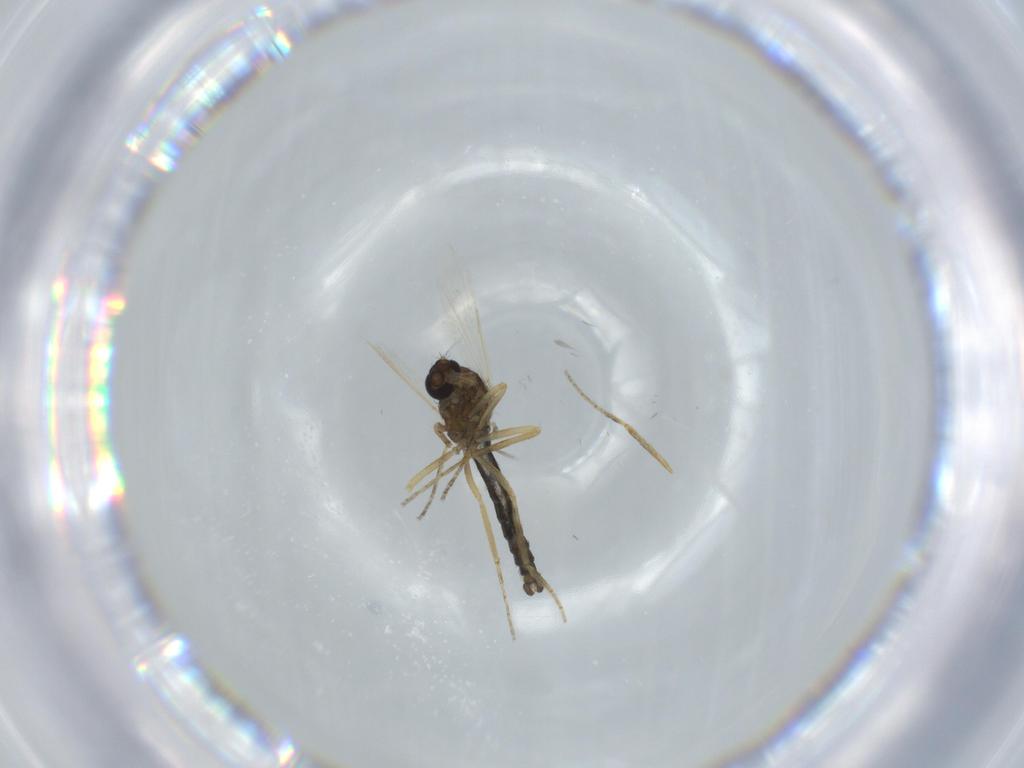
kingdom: Animalia
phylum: Arthropoda
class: Insecta
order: Diptera
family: Ceratopogonidae
